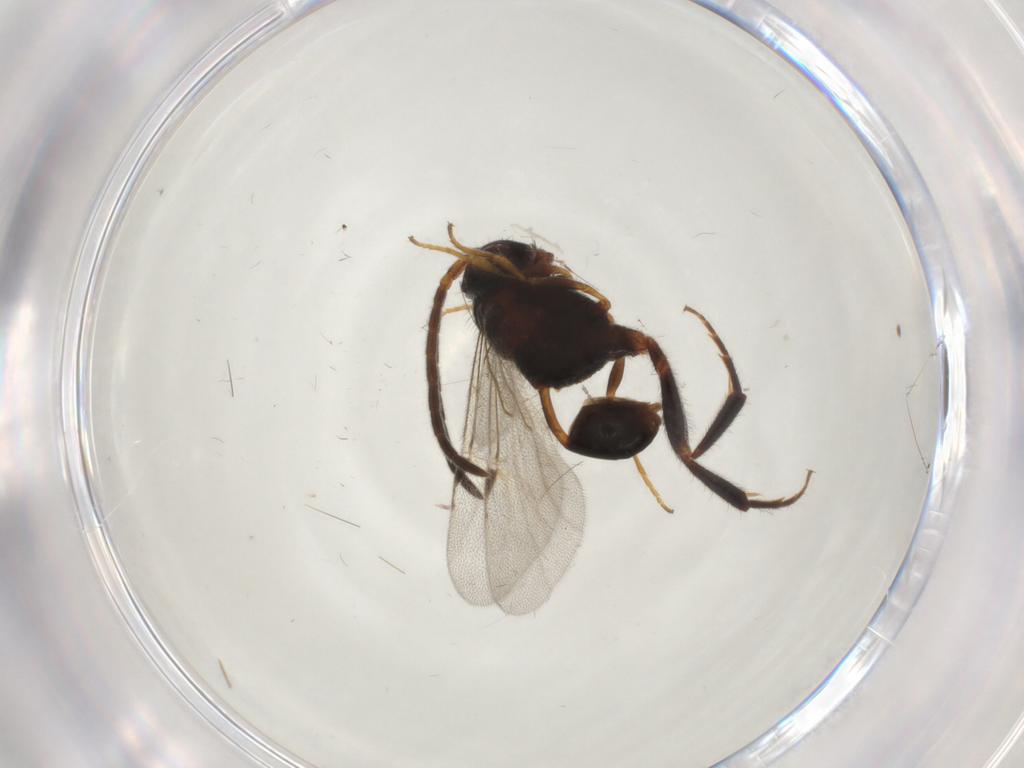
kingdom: Animalia
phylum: Arthropoda
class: Insecta
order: Hymenoptera
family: Evaniidae
